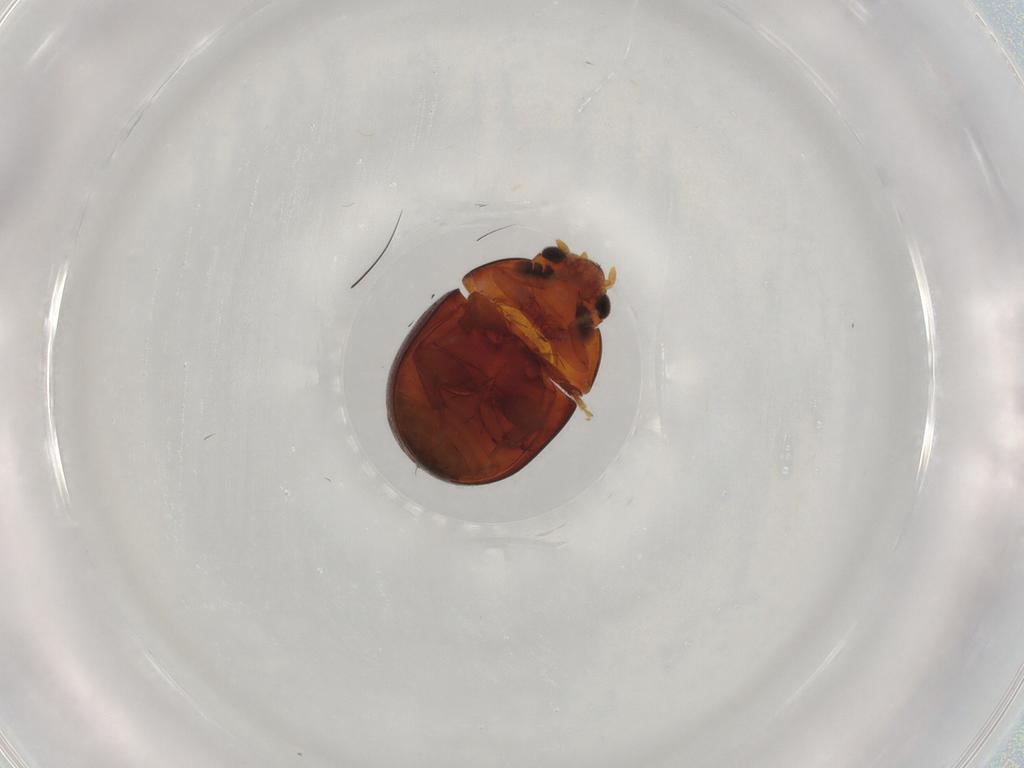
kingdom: Animalia
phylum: Arthropoda
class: Insecta
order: Coleoptera
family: Phalacridae
